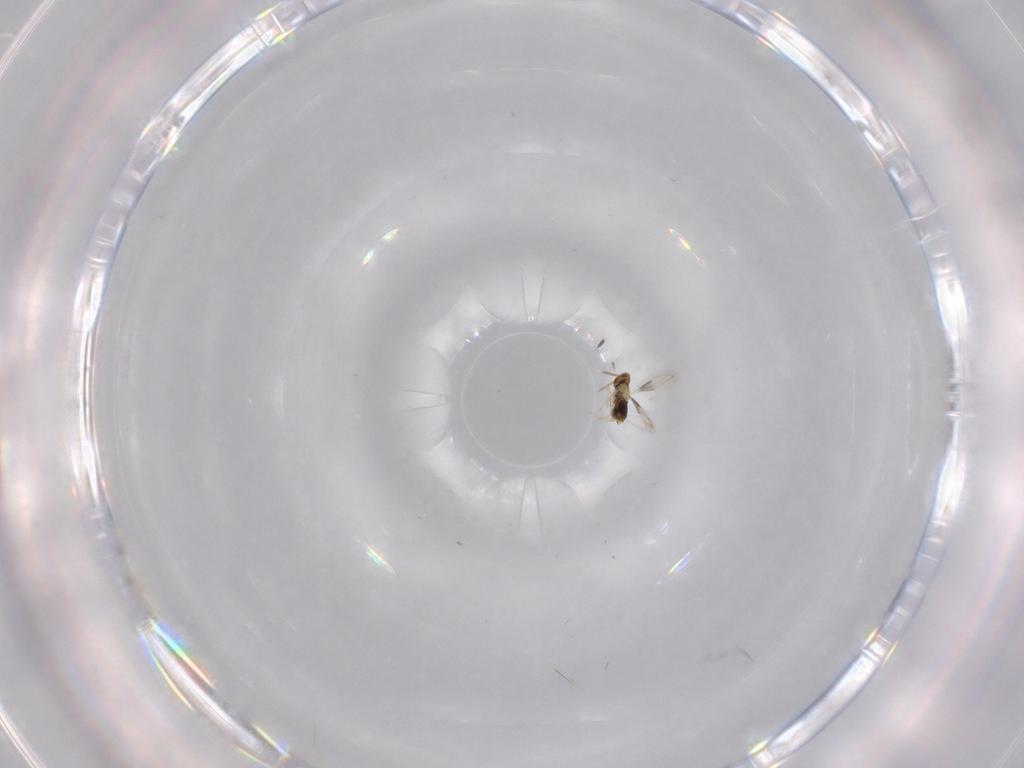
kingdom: Animalia
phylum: Arthropoda
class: Insecta
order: Hymenoptera
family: Aphelinidae
